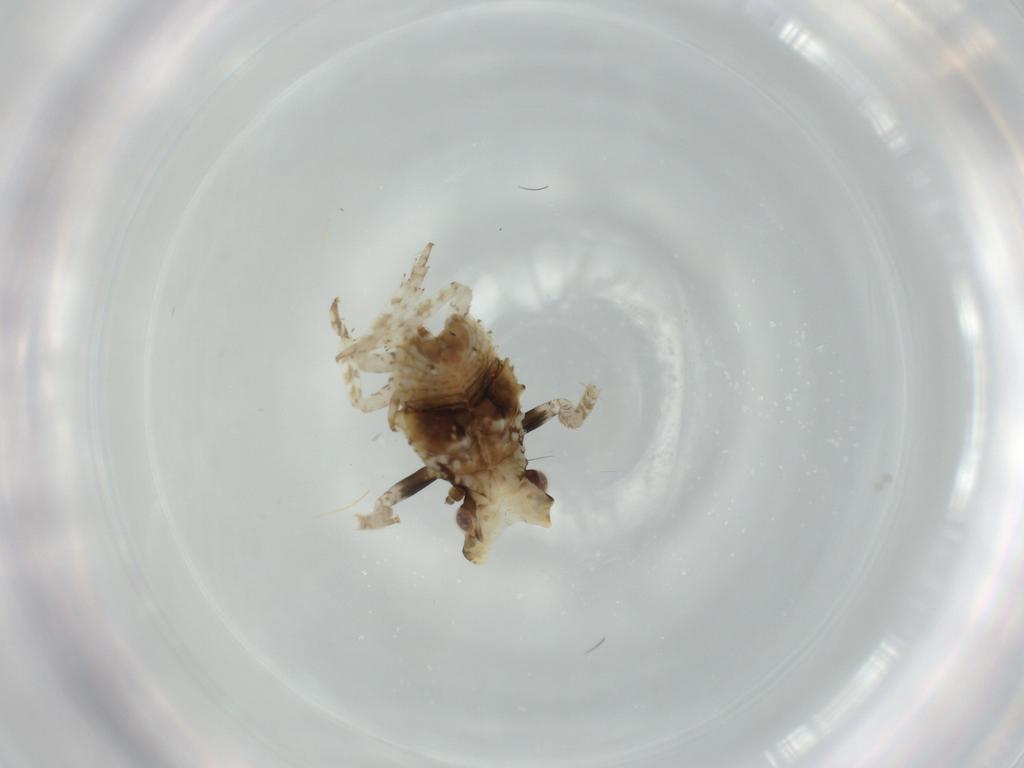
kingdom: Animalia
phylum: Arthropoda
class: Insecta
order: Hemiptera
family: Fulgoridae
